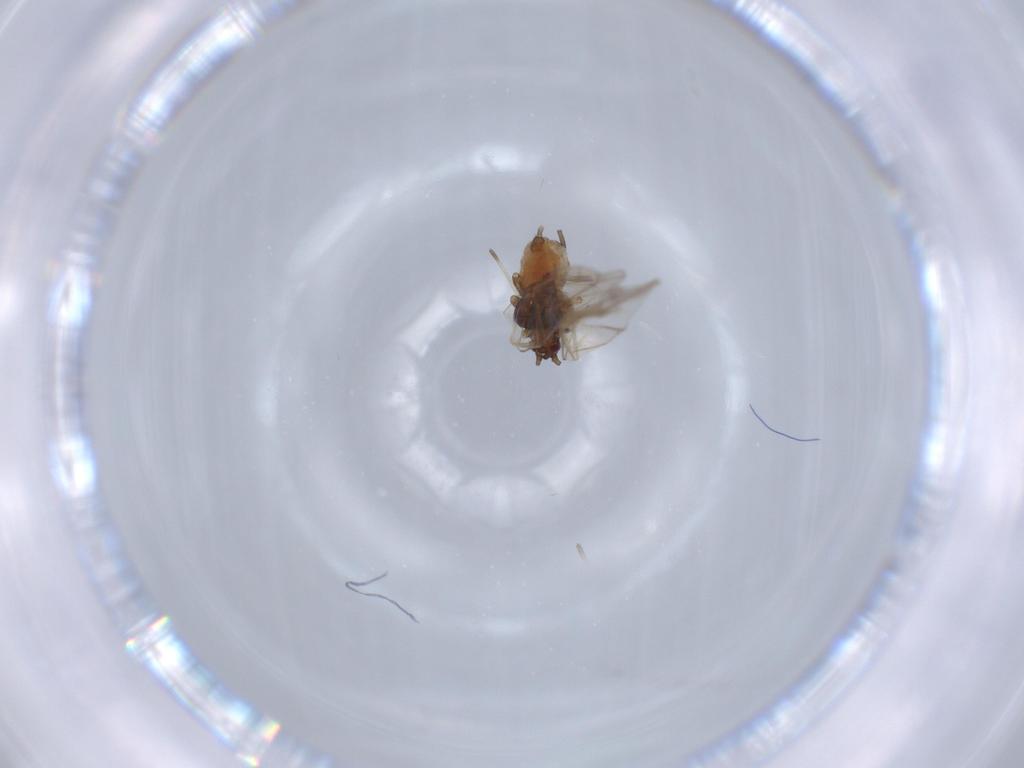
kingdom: Animalia
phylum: Arthropoda
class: Insecta
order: Hemiptera
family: Aphididae
